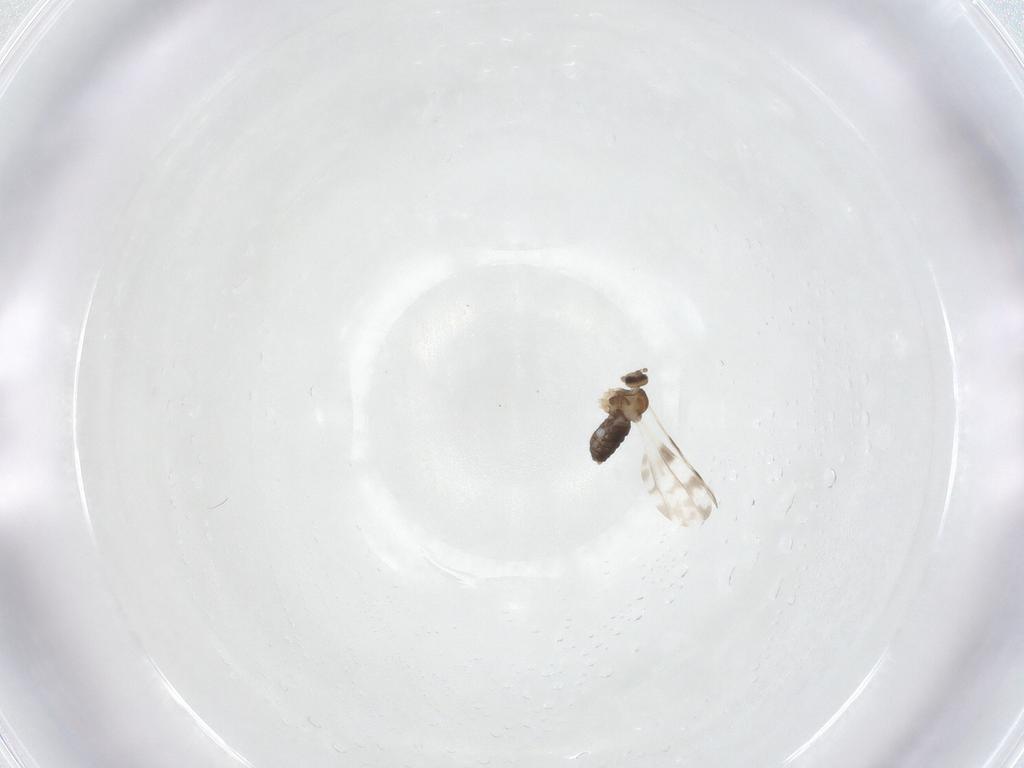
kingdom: Animalia
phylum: Arthropoda
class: Insecta
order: Diptera
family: Cecidomyiidae
